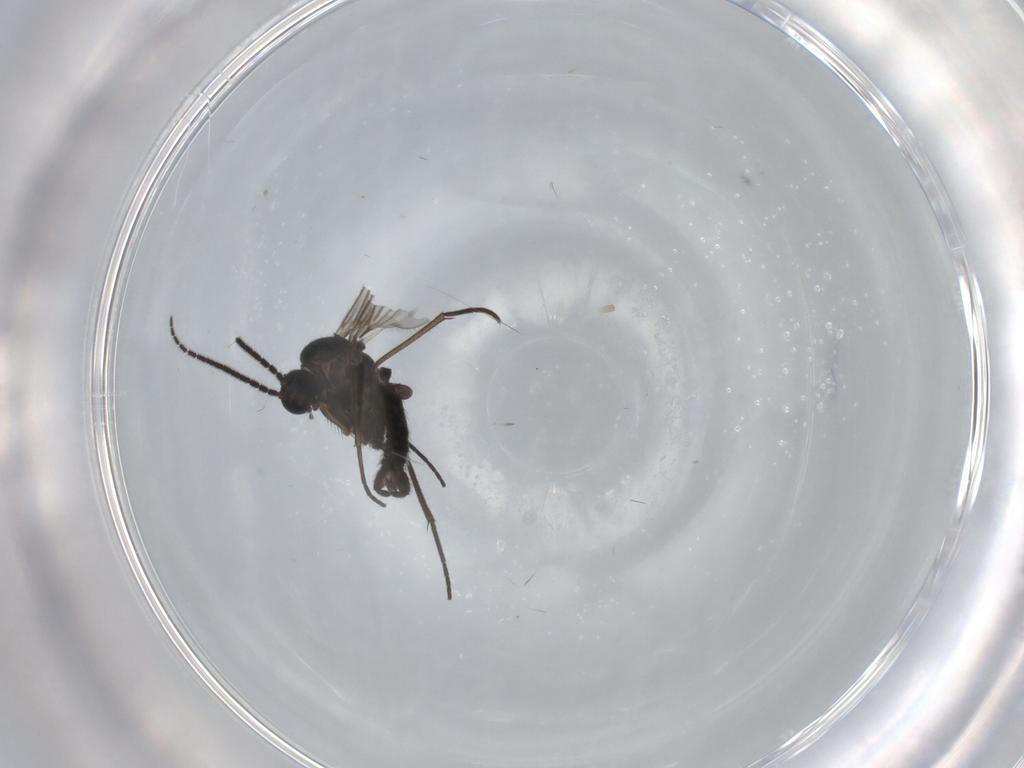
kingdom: Animalia
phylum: Arthropoda
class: Insecta
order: Diptera
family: Sciaridae
